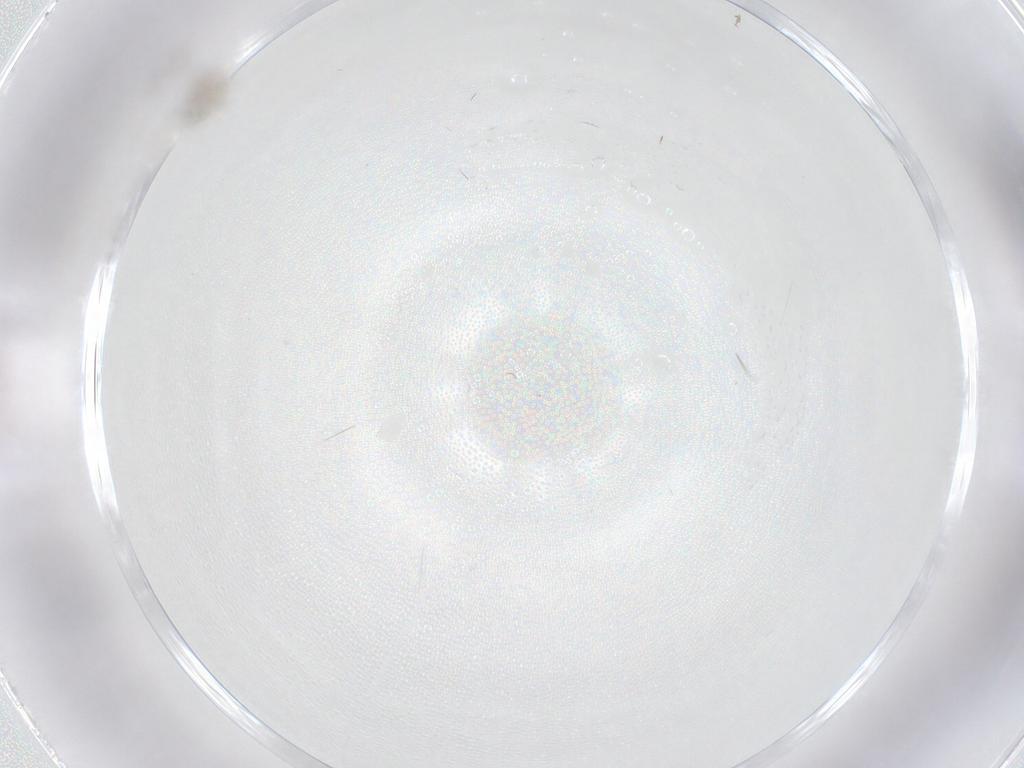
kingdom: Animalia
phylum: Arthropoda
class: Insecta
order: Diptera
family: Cecidomyiidae
